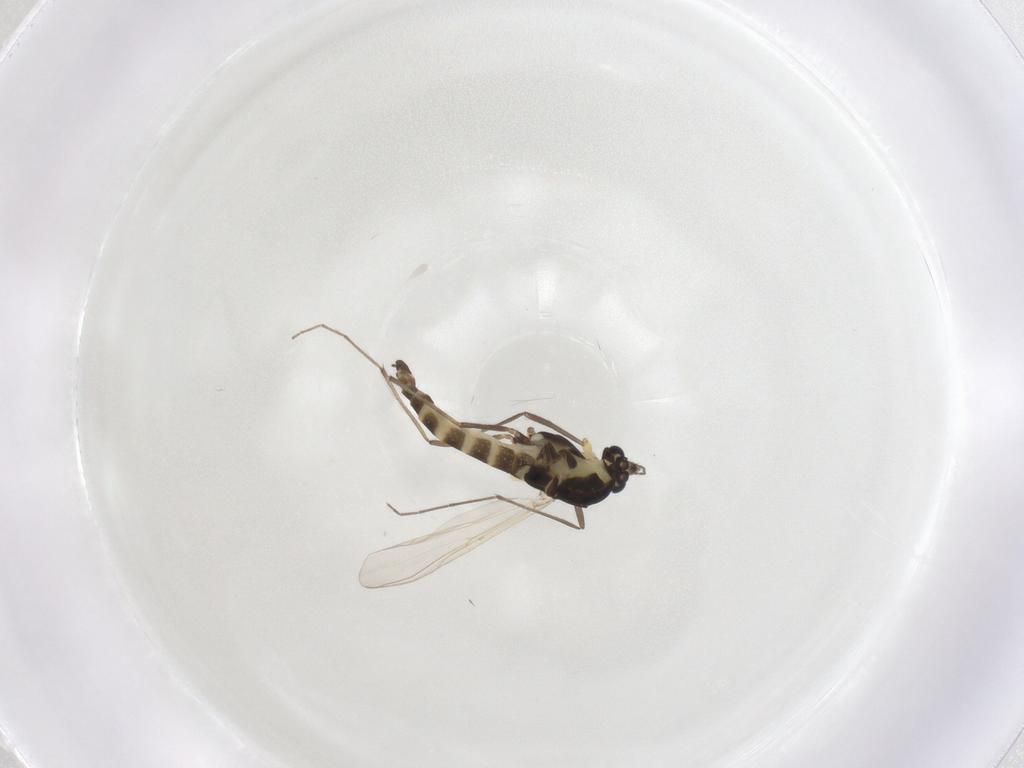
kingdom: Animalia
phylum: Arthropoda
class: Insecta
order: Diptera
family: Chironomidae
